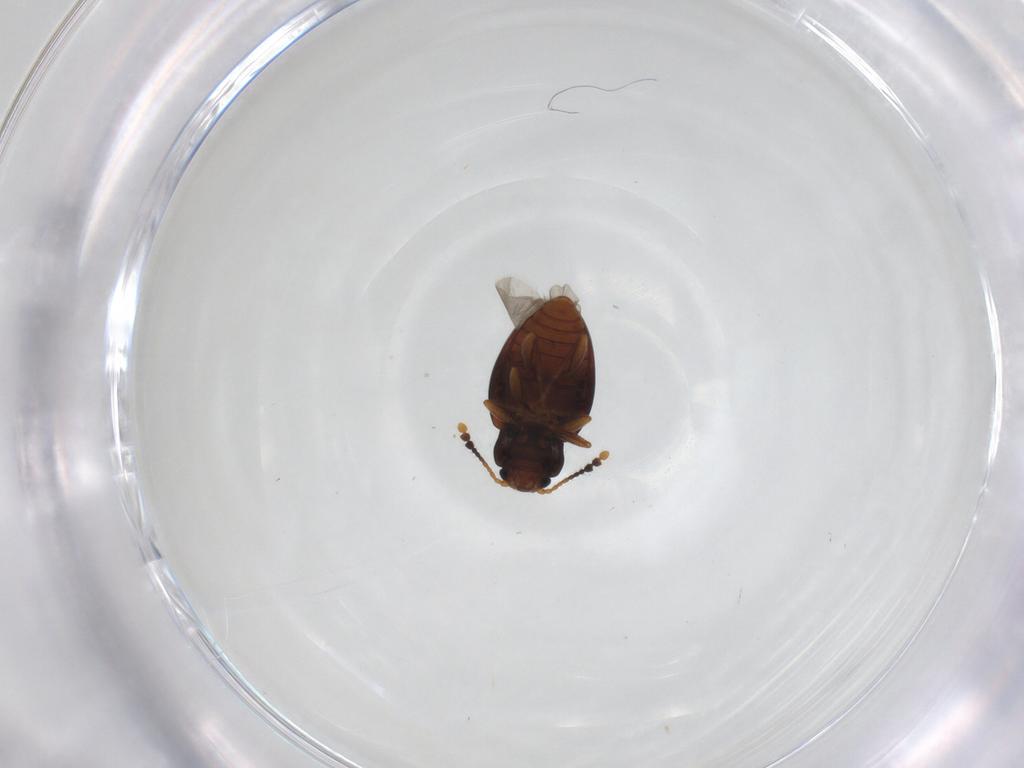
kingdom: Animalia
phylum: Arthropoda
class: Insecta
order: Coleoptera
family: Erotylidae
